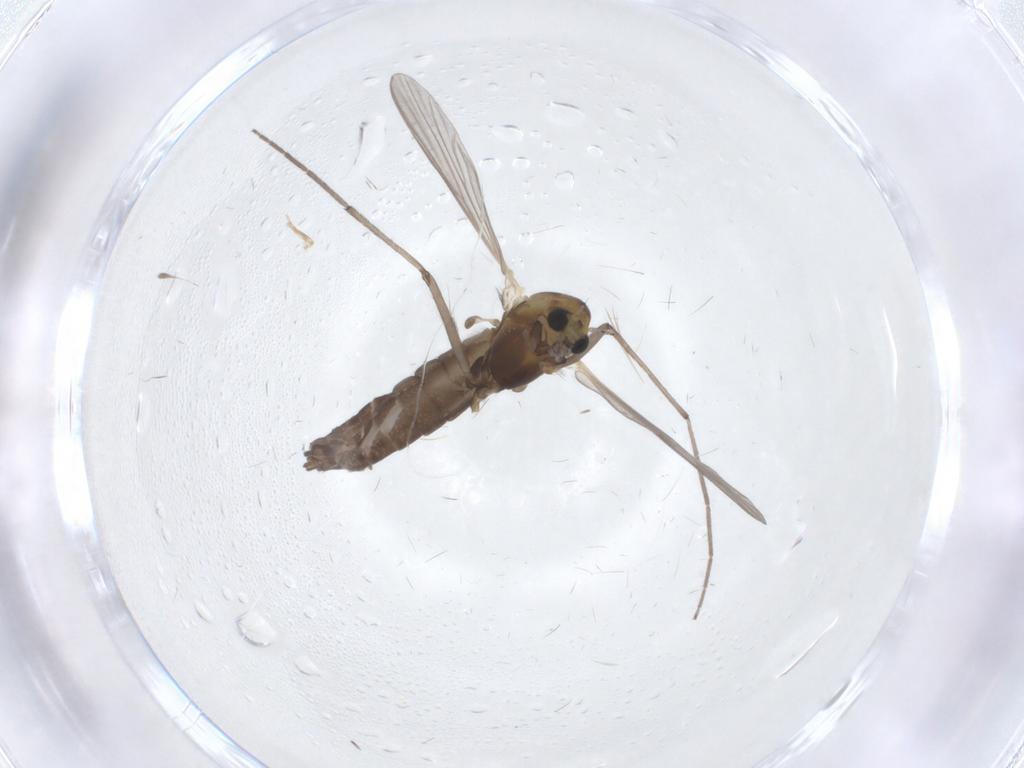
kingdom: Animalia
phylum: Arthropoda
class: Insecta
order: Diptera
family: Chironomidae
